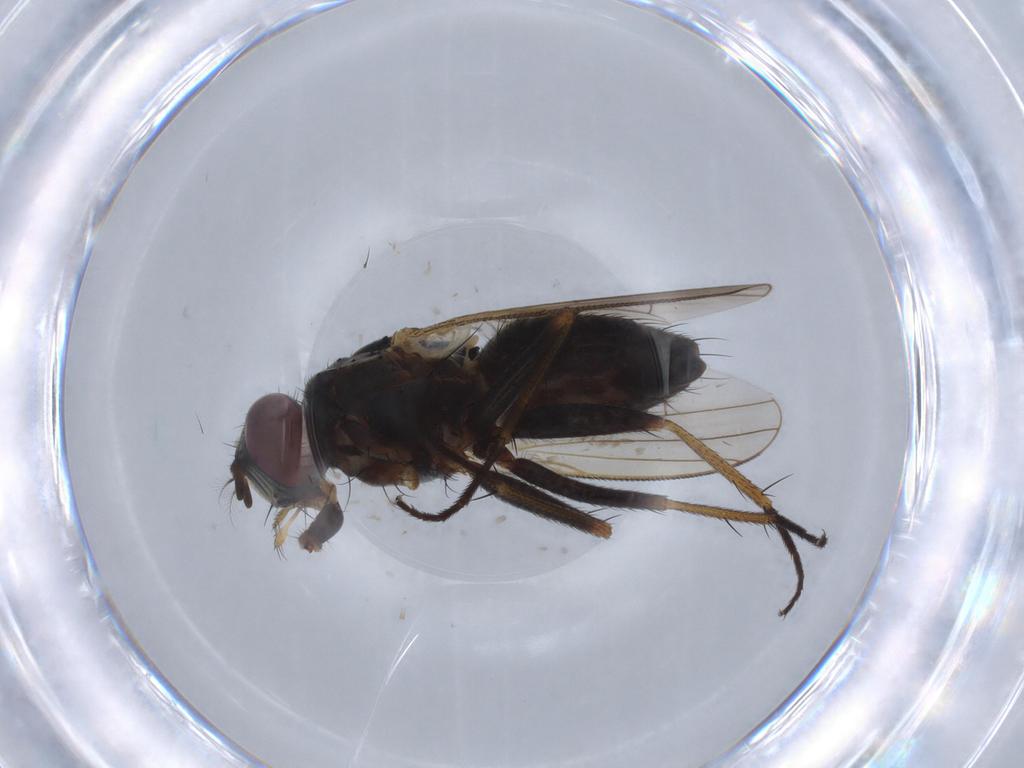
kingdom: Animalia
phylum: Arthropoda
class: Insecta
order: Diptera
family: Muscidae
